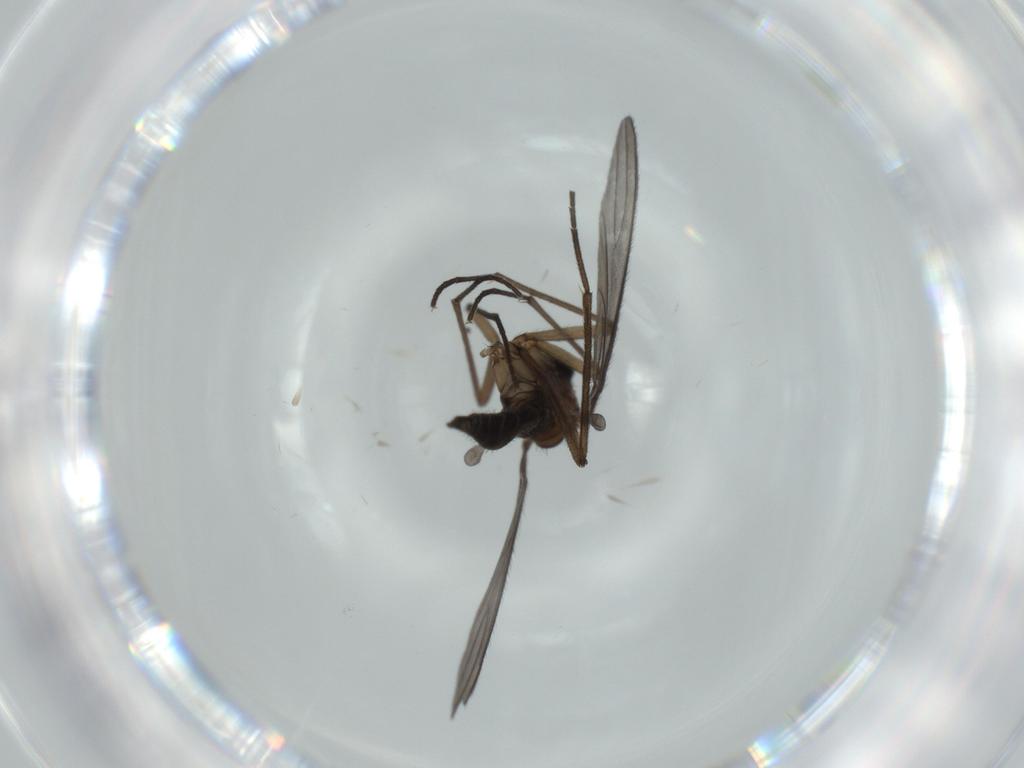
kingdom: Animalia
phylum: Arthropoda
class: Insecta
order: Diptera
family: Sciaridae
